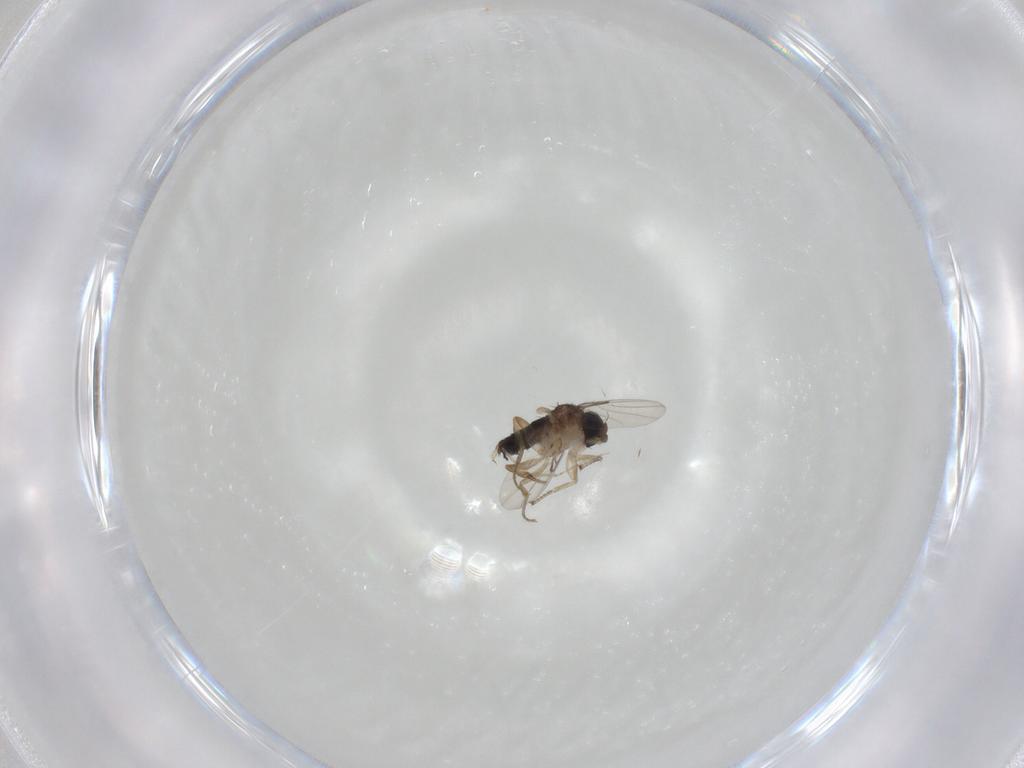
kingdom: Animalia
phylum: Arthropoda
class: Insecta
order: Diptera
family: Phoridae
